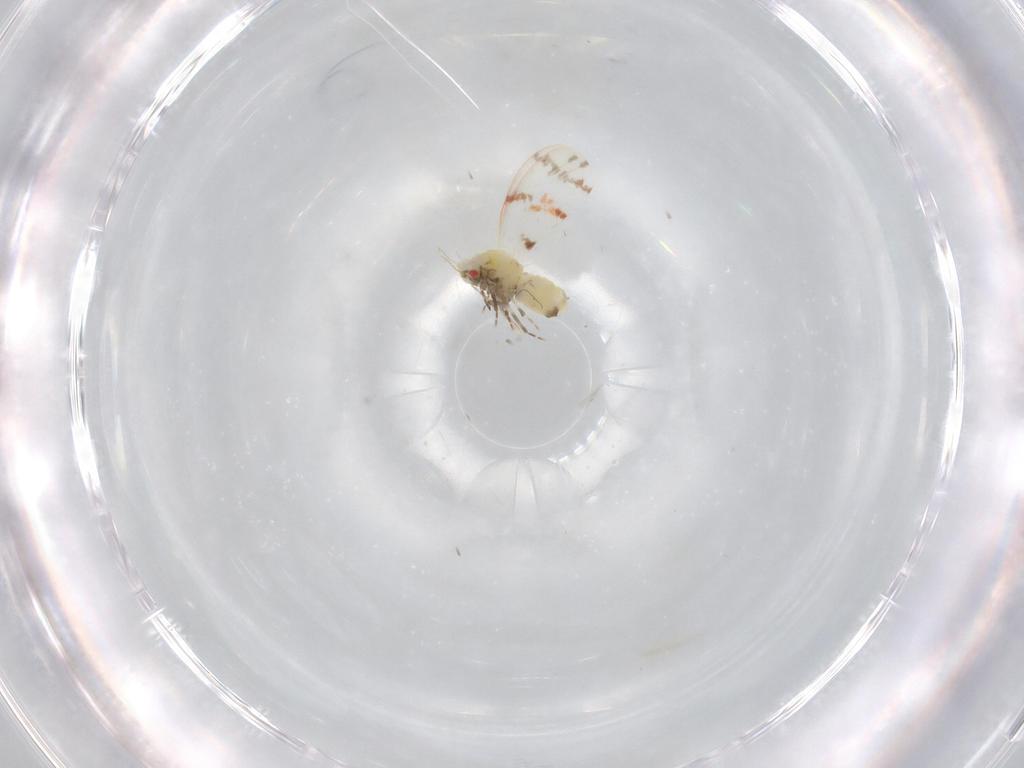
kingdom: Animalia
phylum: Arthropoda
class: Insecta
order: Hemiptera
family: Aleyrodidae
